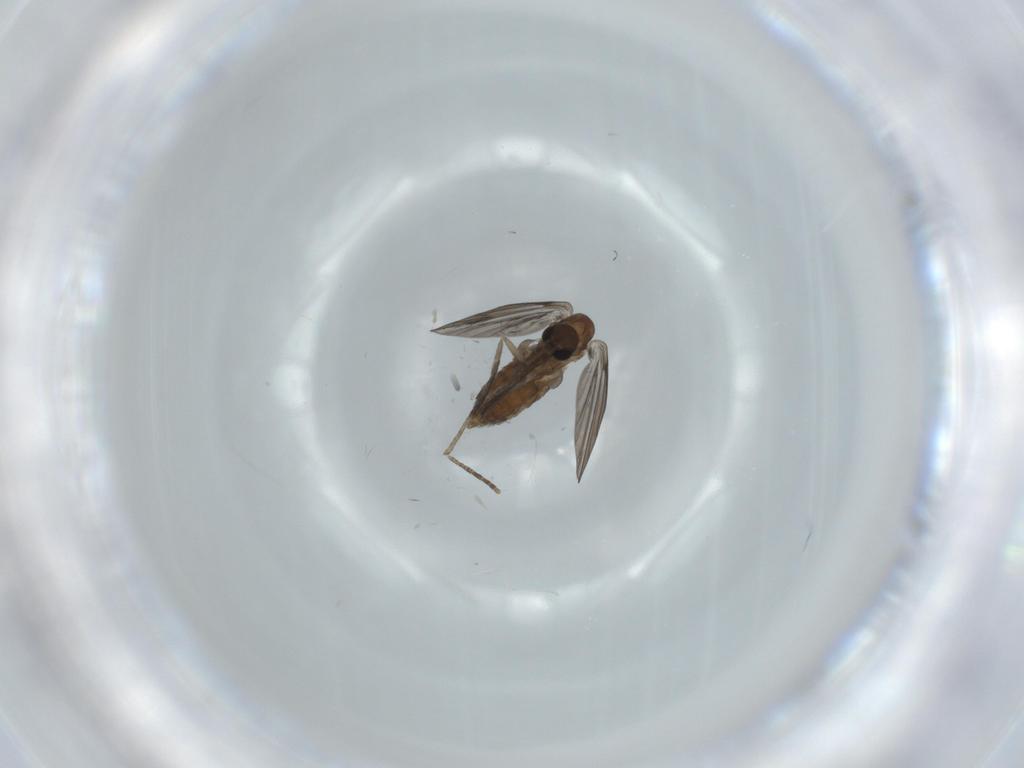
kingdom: Animalia
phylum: Arthropoda
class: Insecta
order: Diptera
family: Psychodidae
